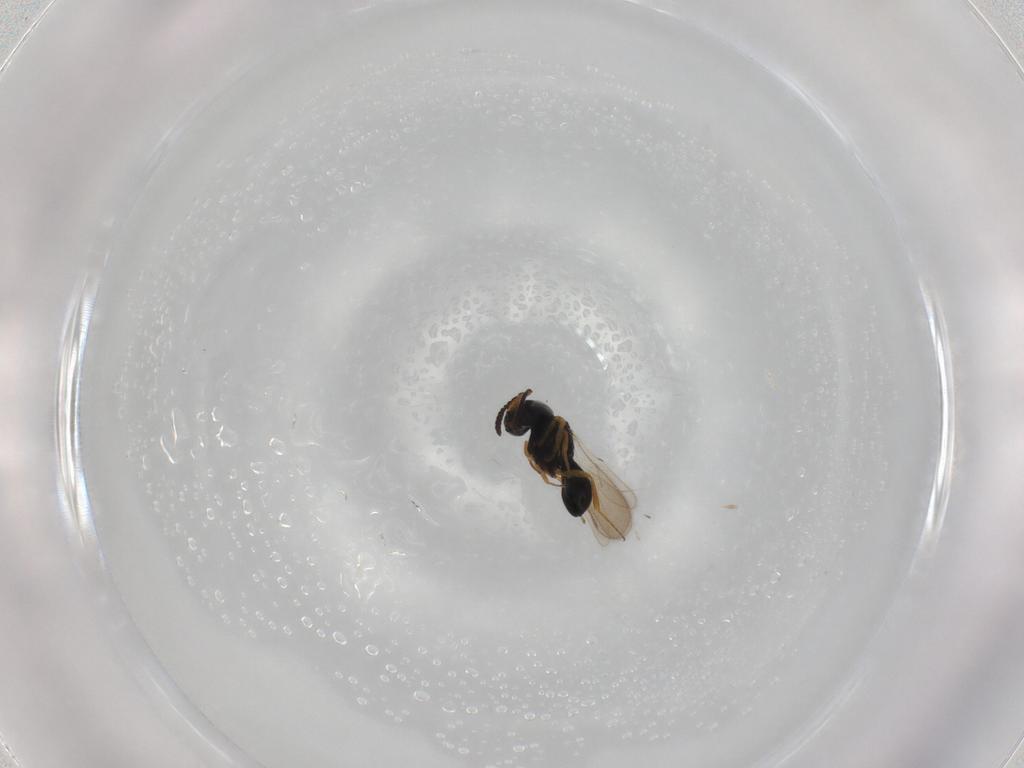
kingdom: Animalia
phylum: Arthropoda
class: Insecta
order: Hymenoptera
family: Scelionidae
